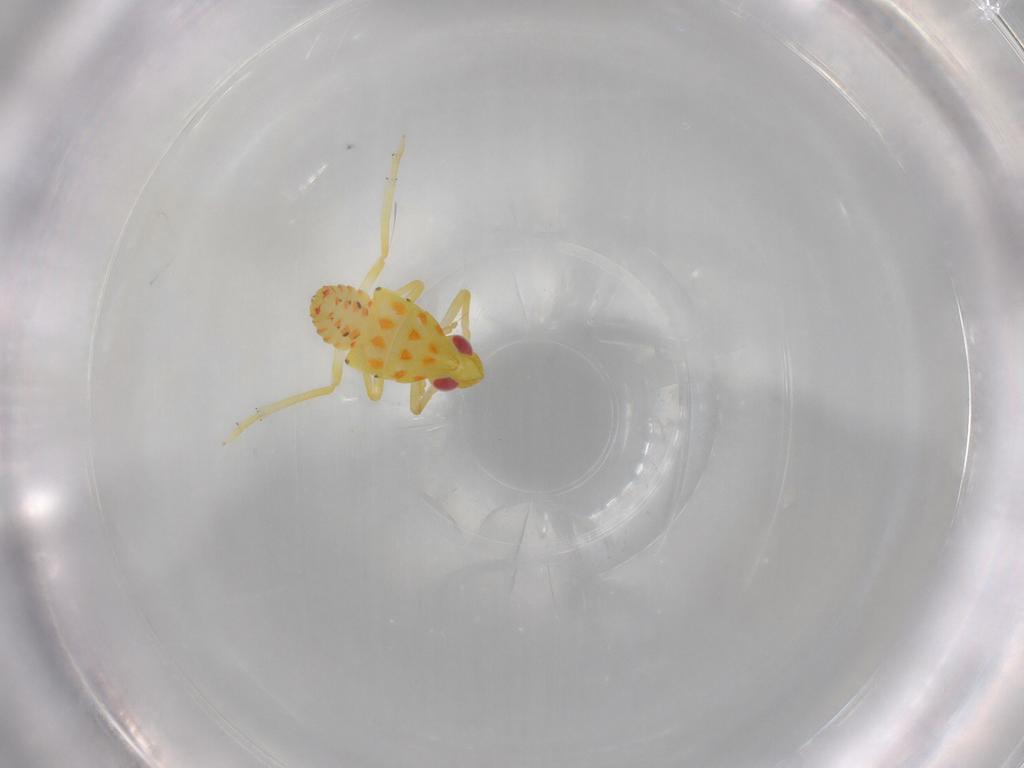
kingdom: Animalia
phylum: Arthropoda
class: Insecta
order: Hemiptera
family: Tropiduchidae
